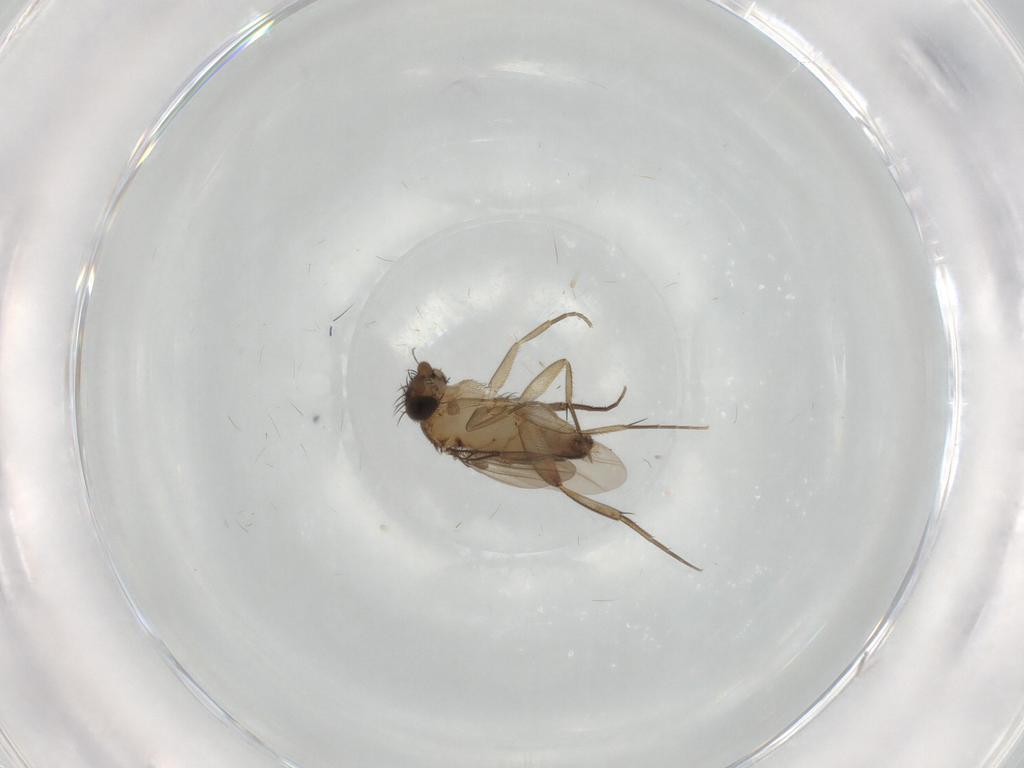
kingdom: Animalia
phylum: Arthropoda
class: Insecta
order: Diptera
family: Phoridae
